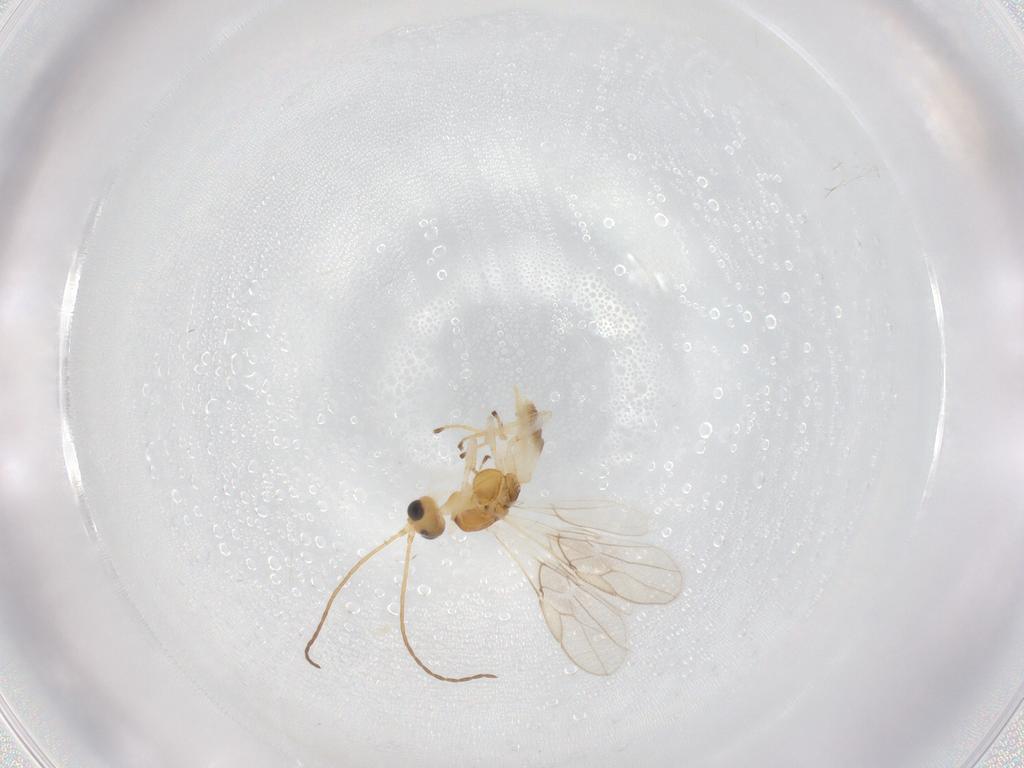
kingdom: Animalia
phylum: Arthropoda
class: Insecta
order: Hymenoptera
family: Braconidae
